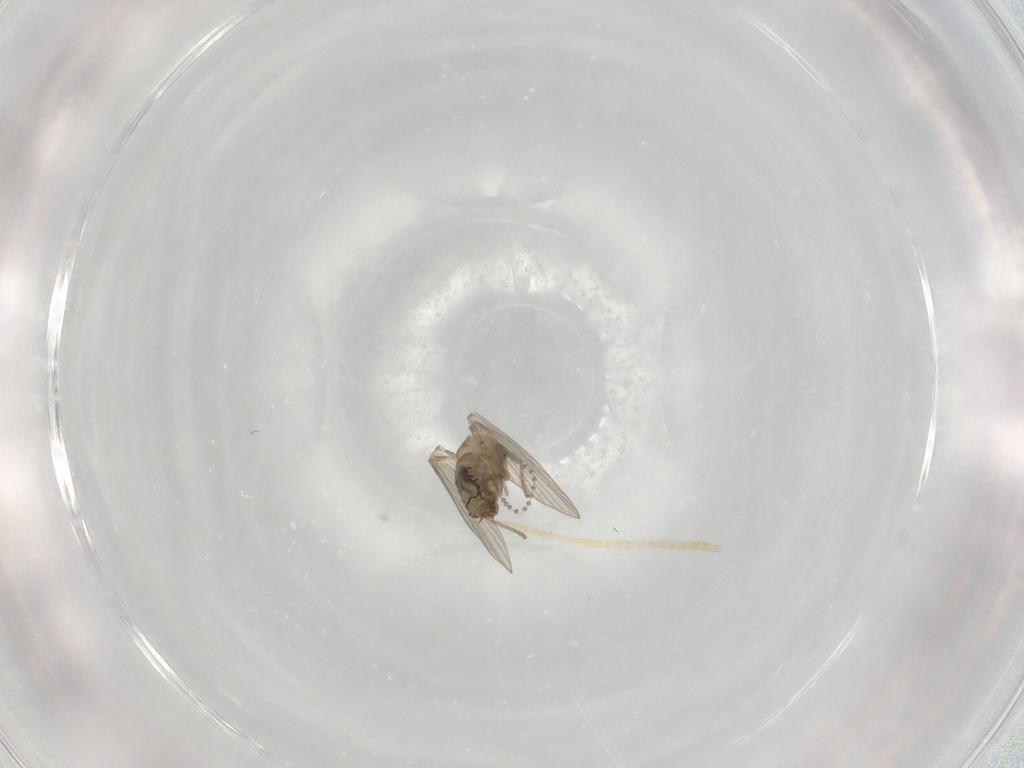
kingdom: Animalia
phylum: Arthropoda
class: Insecta
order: Diptera
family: Psychodidae
